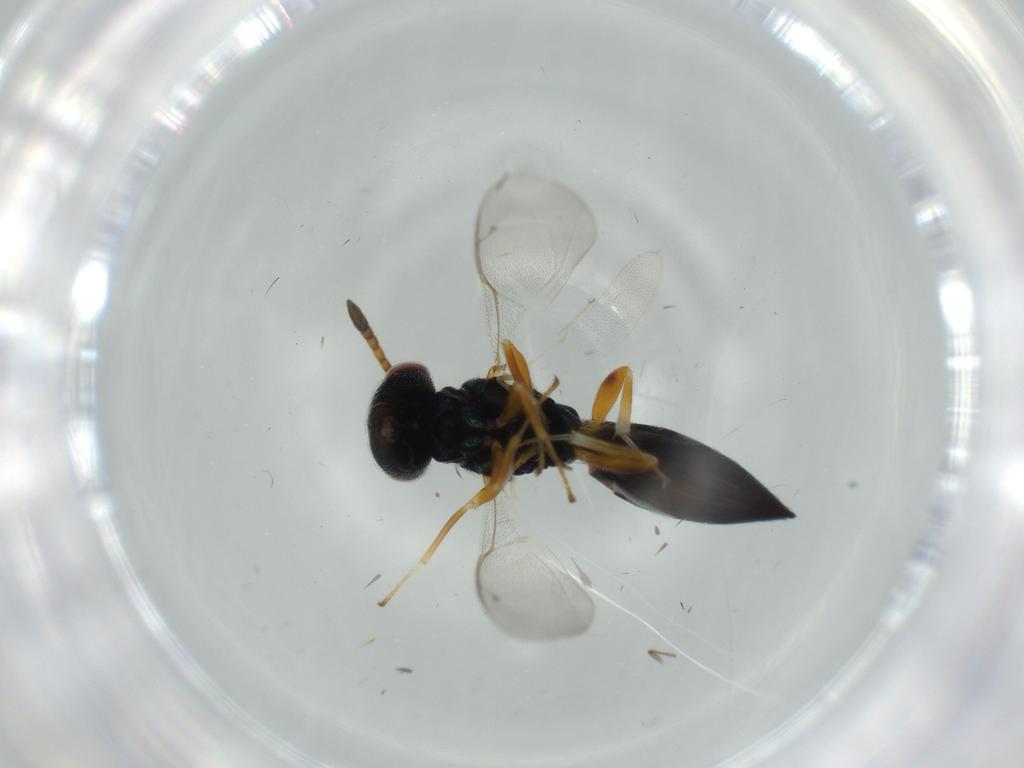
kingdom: Animalia
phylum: Arthropoda
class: Insecta
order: Hymenoptera
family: Pteromalidae
